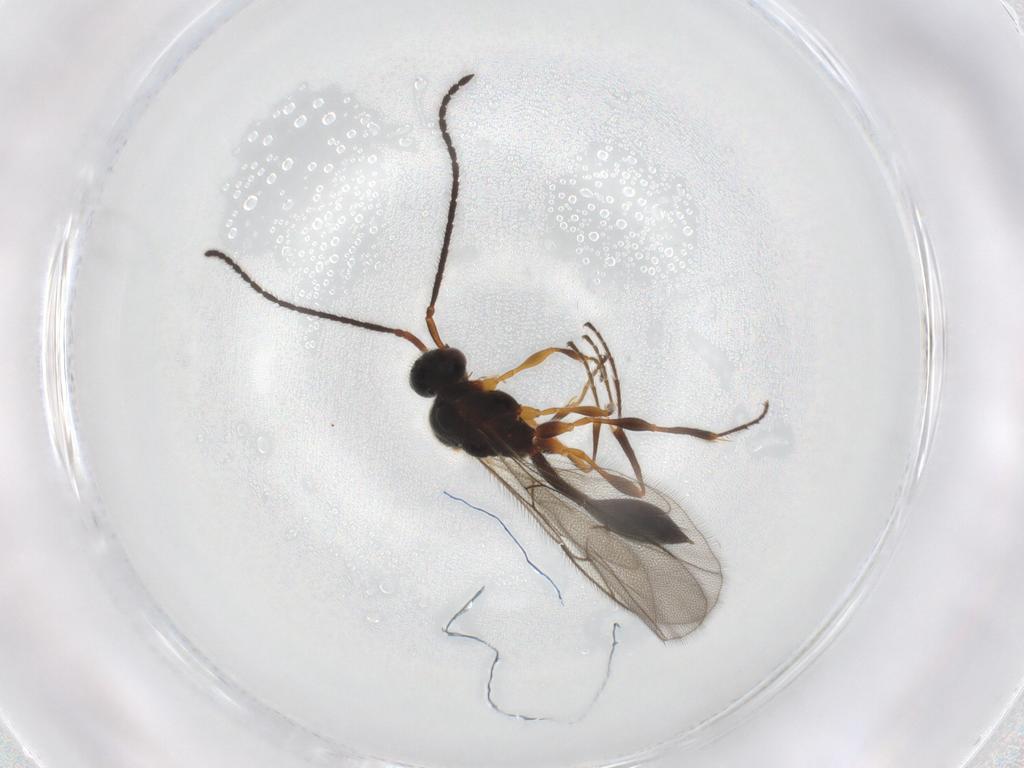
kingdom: Animalia
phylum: Arthropoda
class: Insecta
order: Hymenoptera
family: Diapriidae
